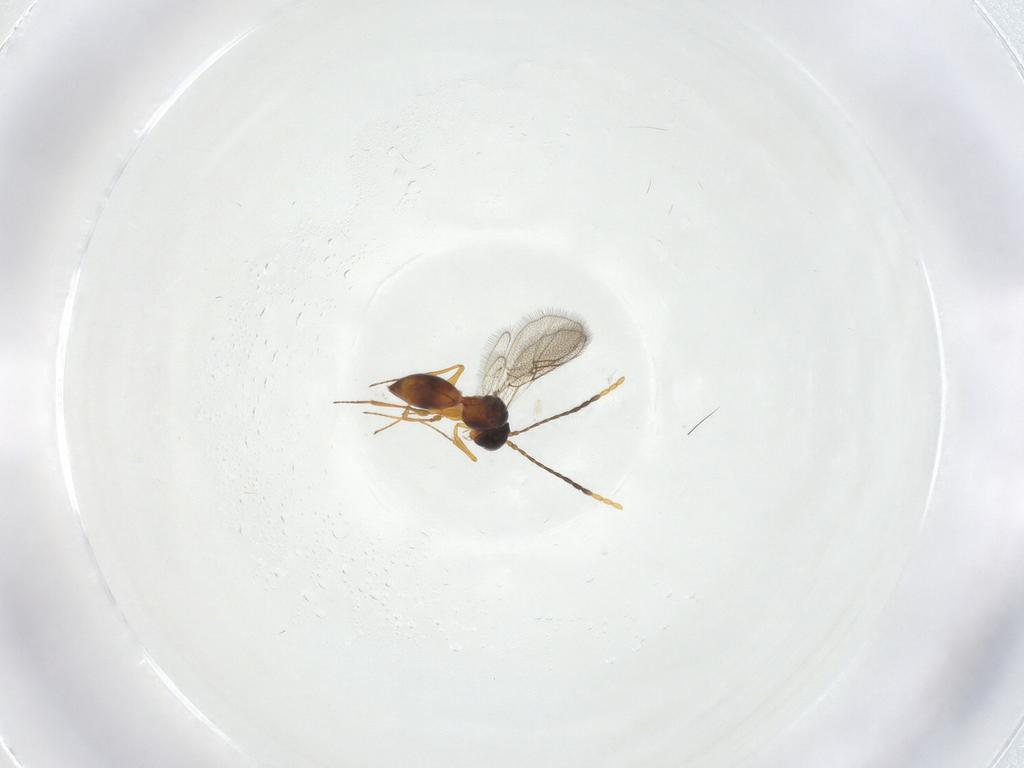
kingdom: Animalia
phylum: Arthropoda
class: Insecta
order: Hymenoptera
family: Figitidae
